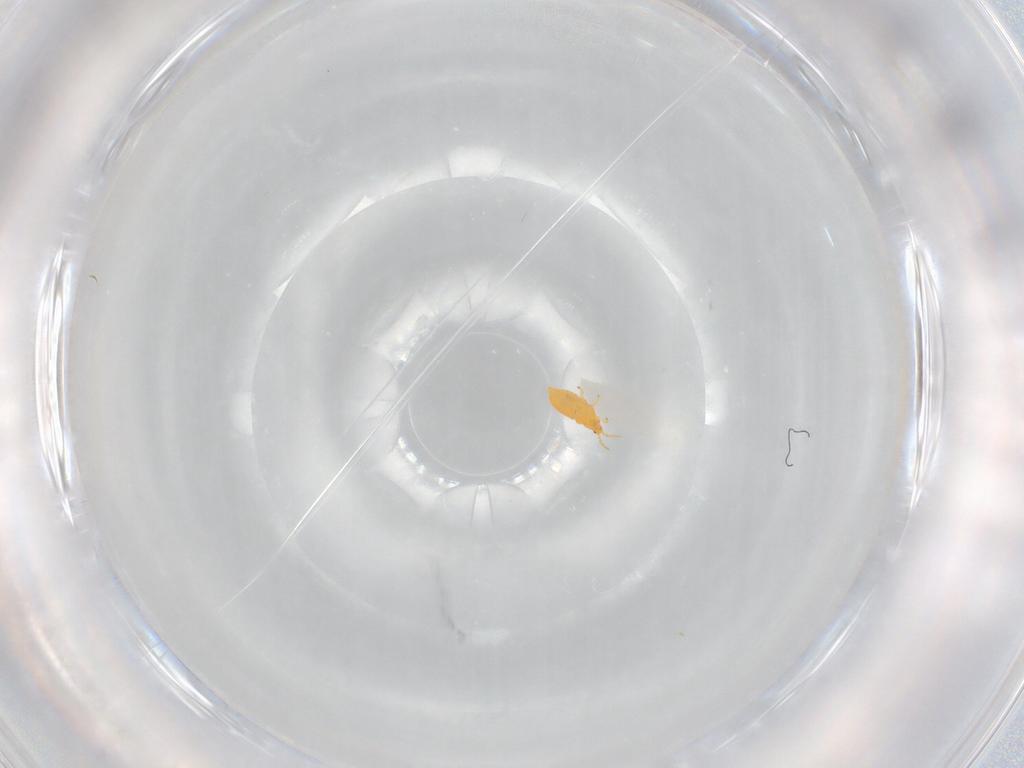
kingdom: Animalia
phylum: Arthropoda
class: Insecta
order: Thysanoptera
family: Heterothripidae
